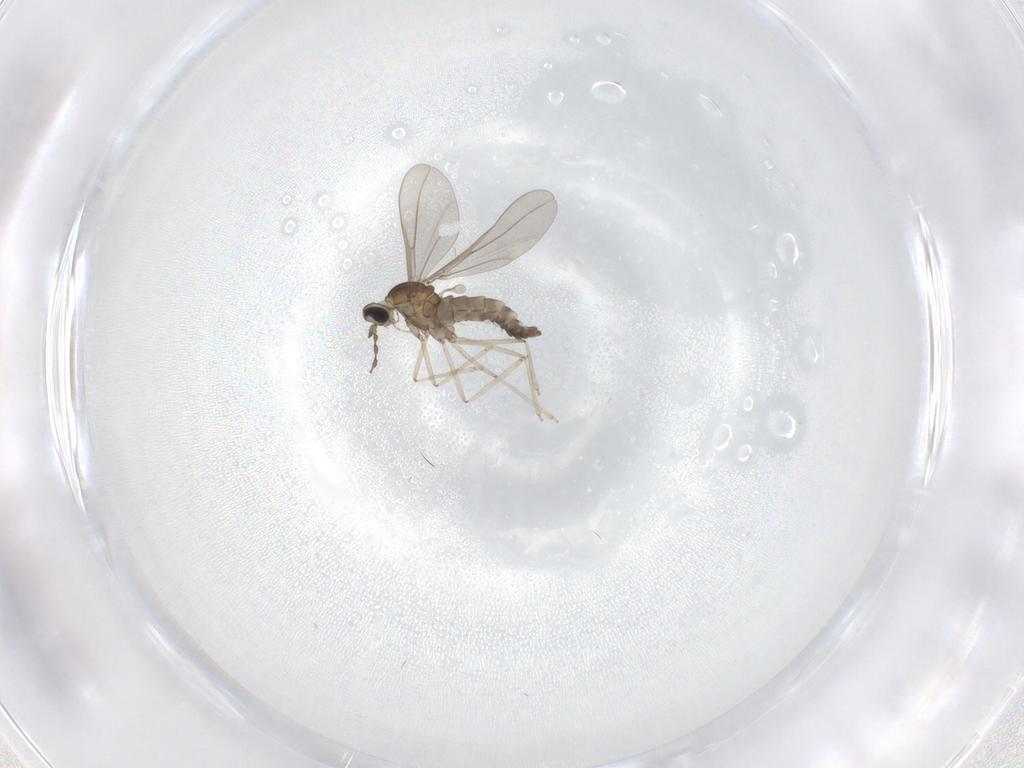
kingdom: Animalia
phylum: Arthropoda
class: Insecta
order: Diptera
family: Cecidomyiidae
